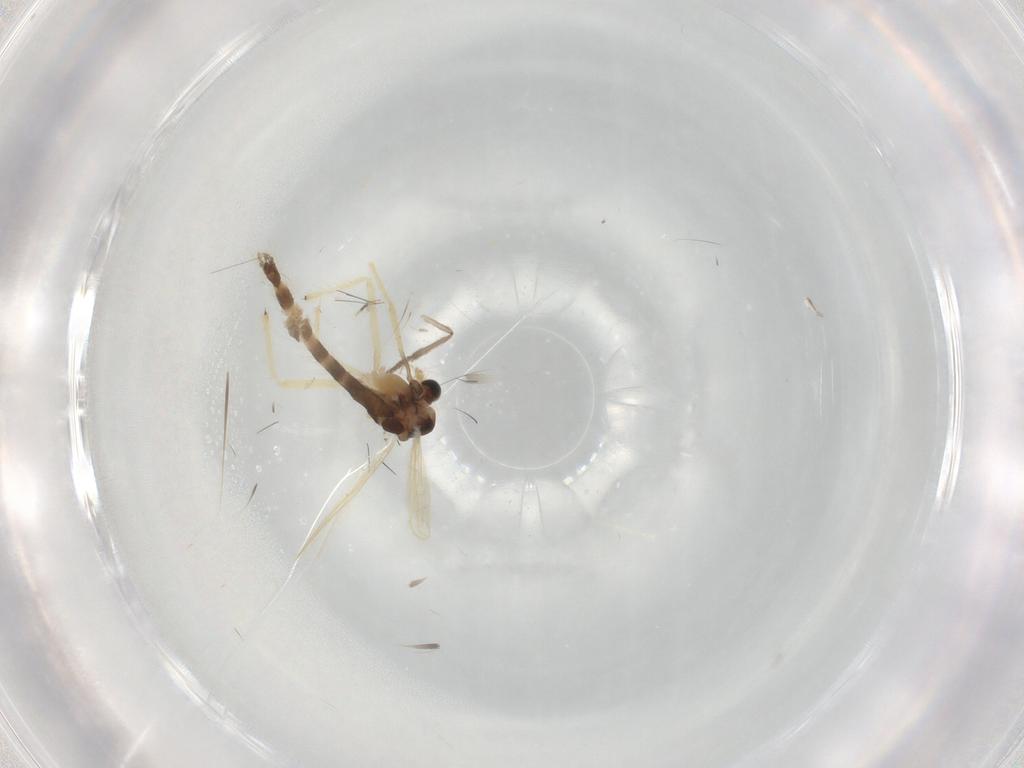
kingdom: Animalia
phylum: Arthropoda
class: Insecta
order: Diptera
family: Chironomidae
